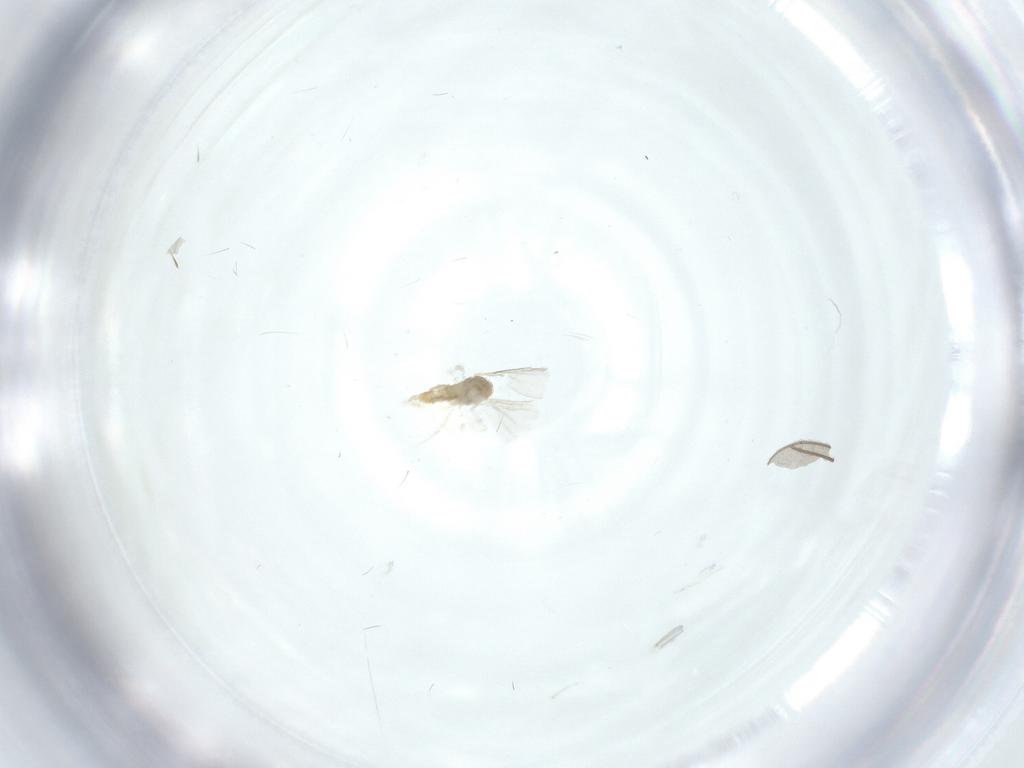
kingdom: Animalia
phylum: Arthropoda
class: Insecta
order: Diptera
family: Cecidomyiidae
